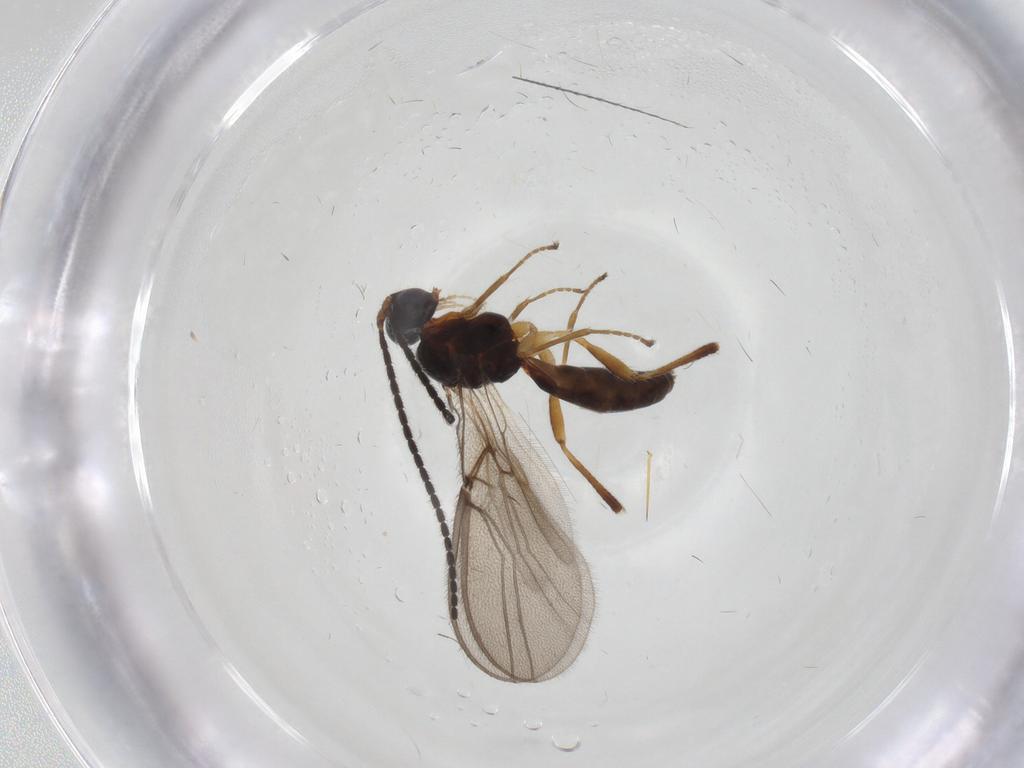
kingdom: Animalia
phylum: Arthropoda
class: Insecta
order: Hymenoptera
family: Braconidae
